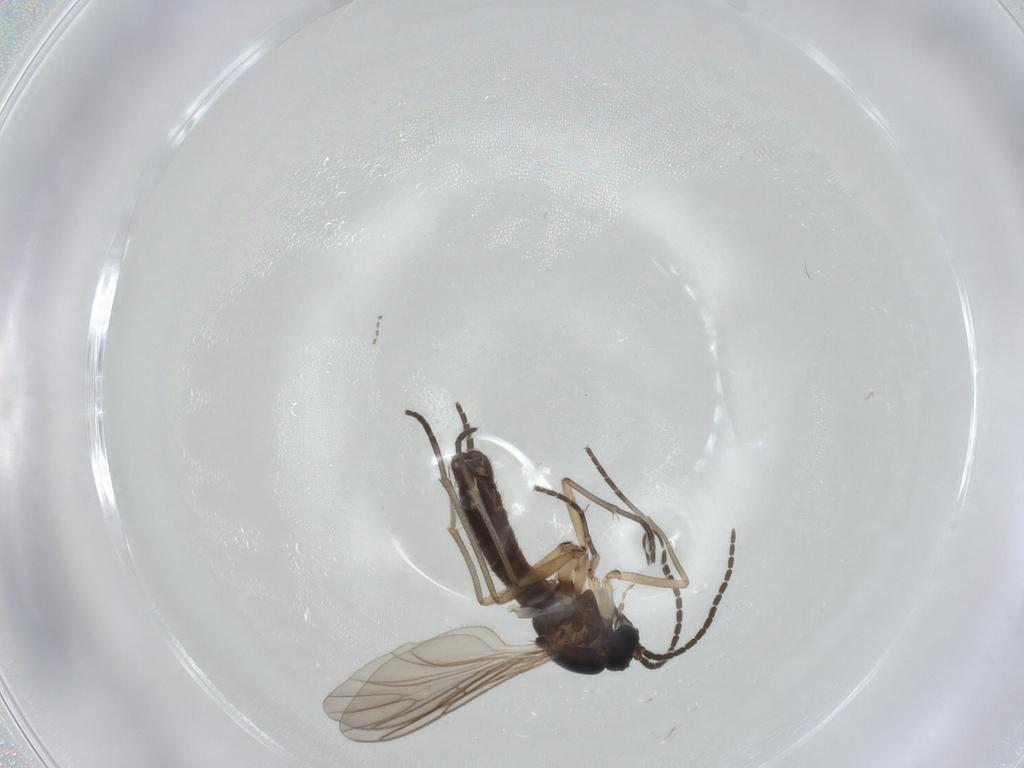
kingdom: Animalia
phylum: Arthropoda
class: Insecta
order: Diptera
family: Sciaridae
